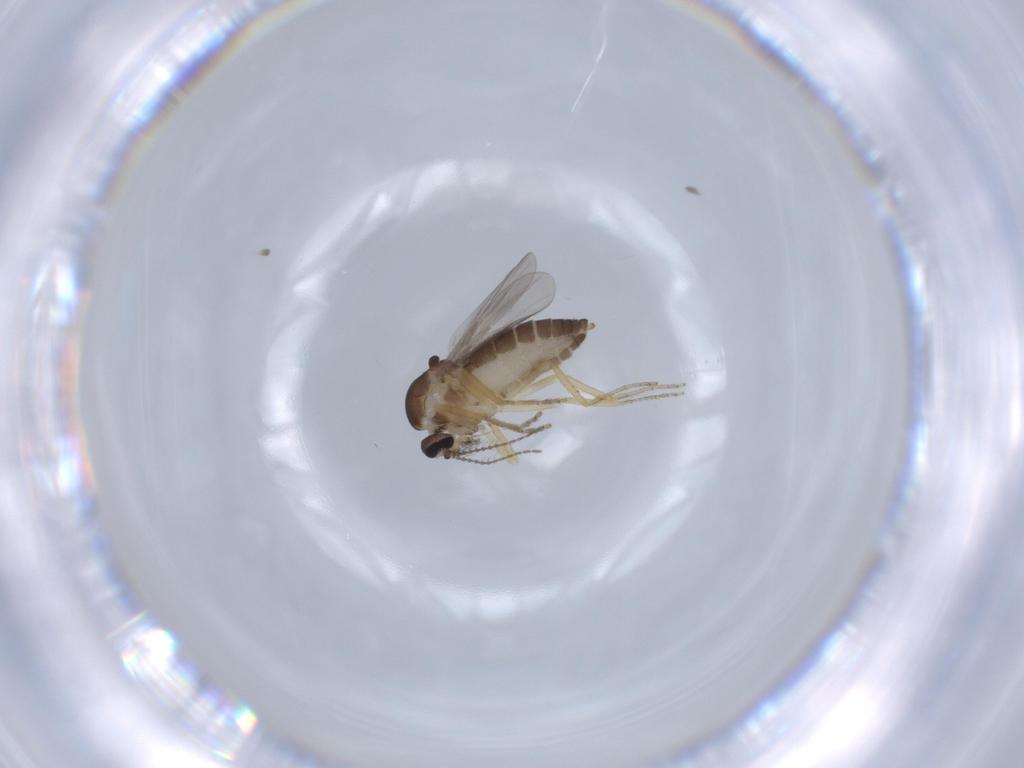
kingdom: Animalia
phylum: Arthropoda
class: Insecta
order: Diptera
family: Ceratopogonidae
